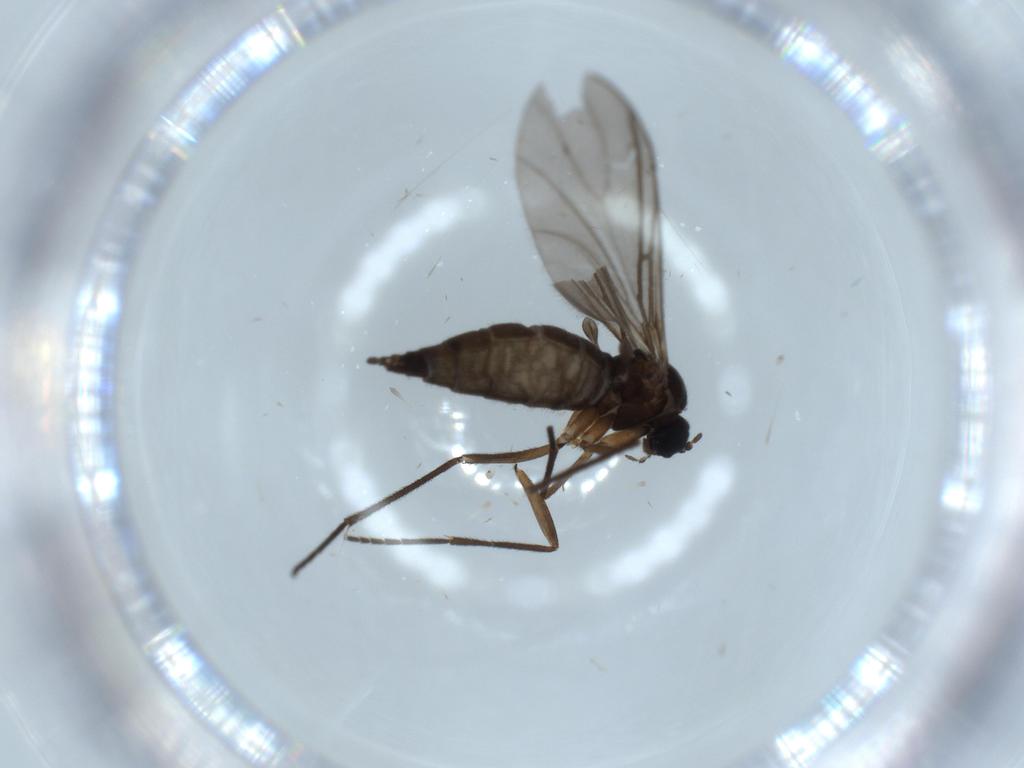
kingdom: Animalia
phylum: Arthropoda
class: Insecta
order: Diptera
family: Sciaridae
